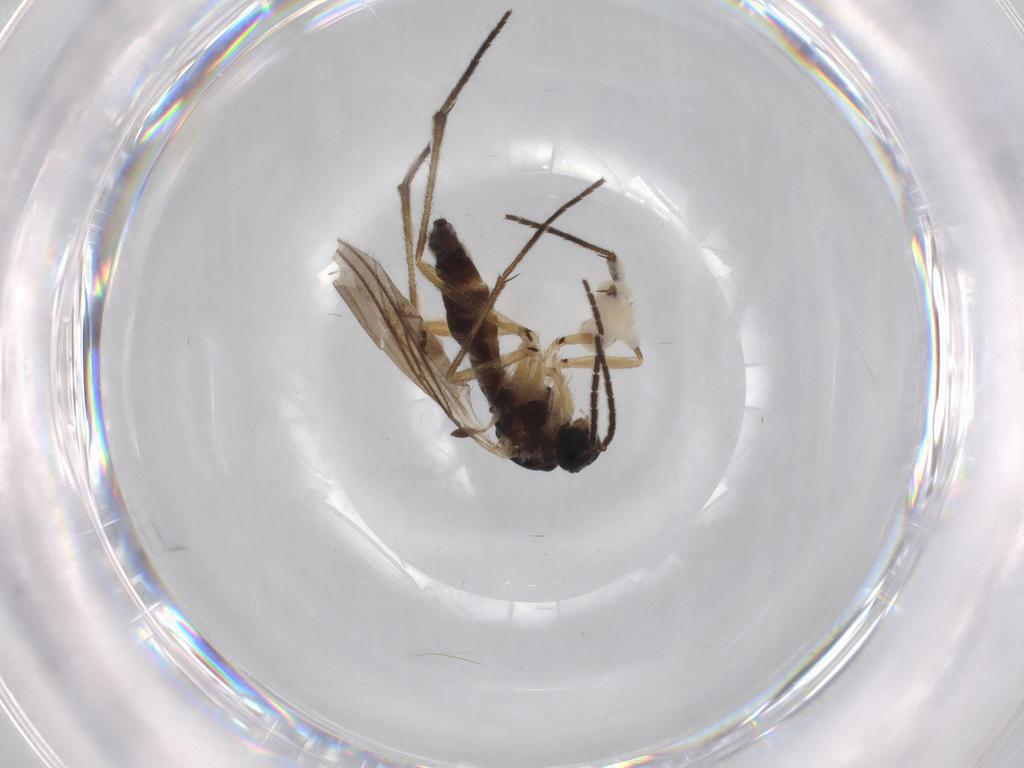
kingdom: Animalia
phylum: Arthropoda
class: Insecta
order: Diptera
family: Sciaridae
